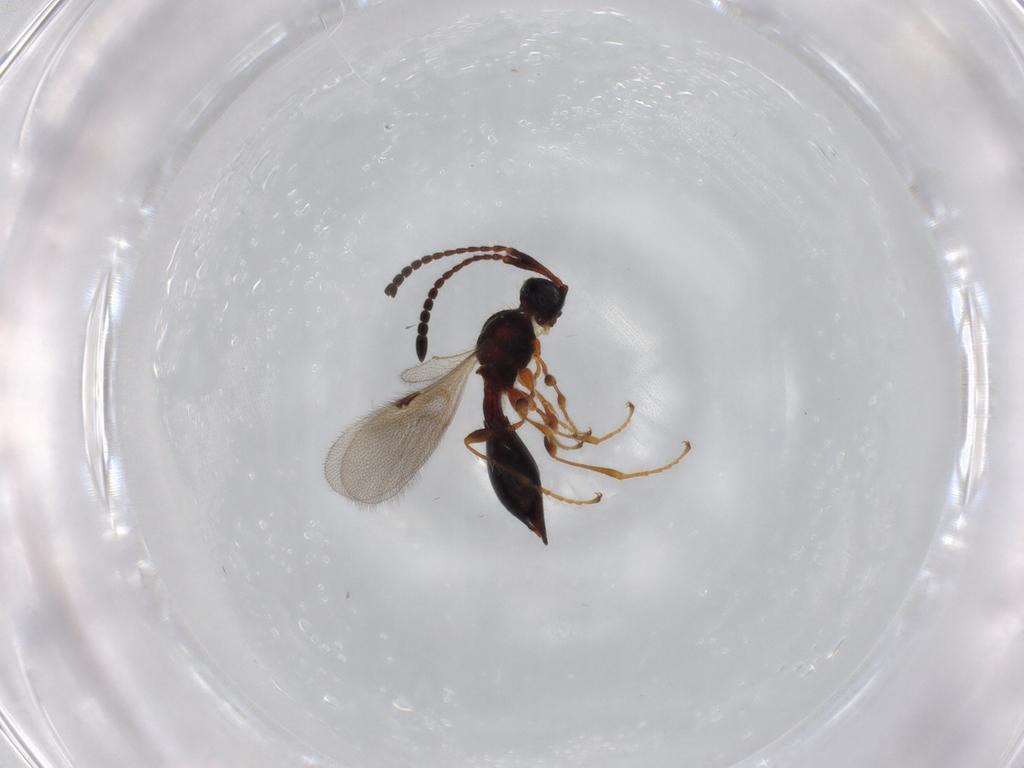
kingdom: Animalia
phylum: Arthropoda
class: Insecta
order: Hymenoptera
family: Diapriidae
